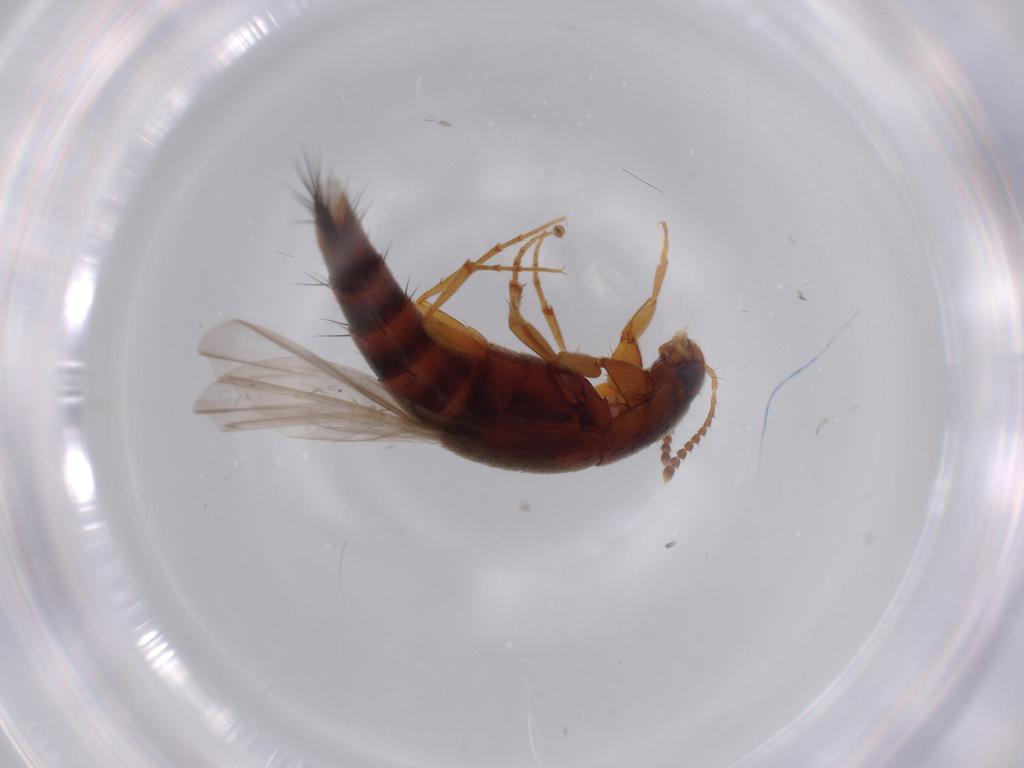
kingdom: Animalia
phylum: Arthropoda
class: Insecta
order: Coleoptera
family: Staphylinidae
